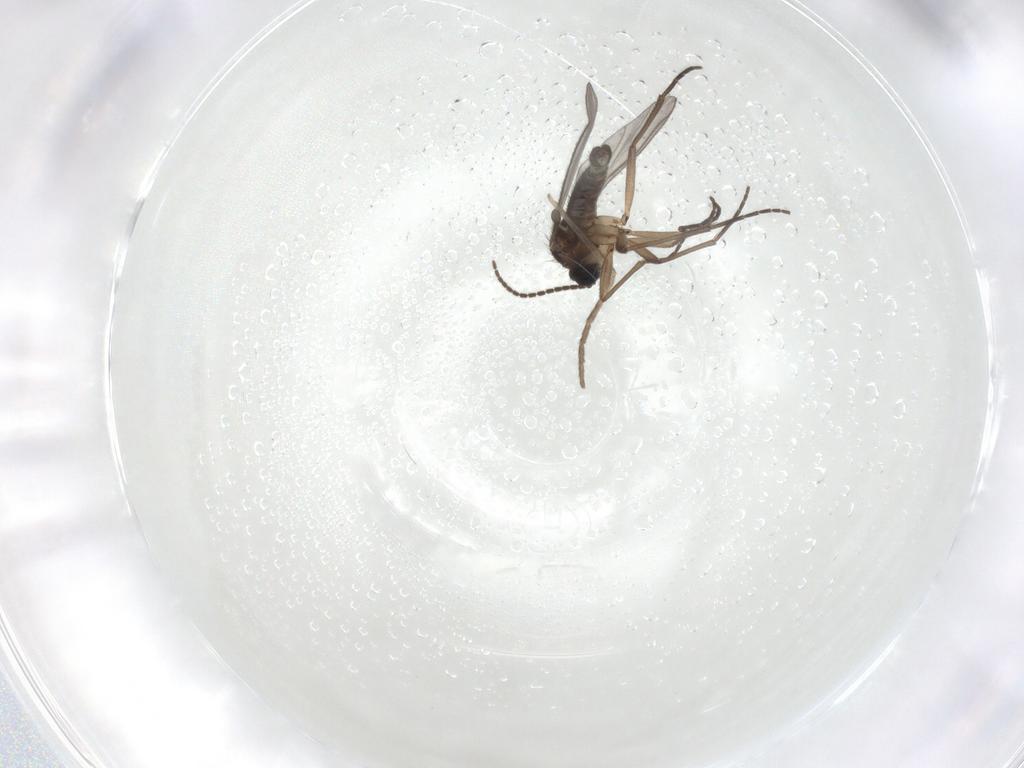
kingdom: Animalia
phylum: Arthropoda
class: Insecta
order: Diptera
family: Cecidomyiidae
